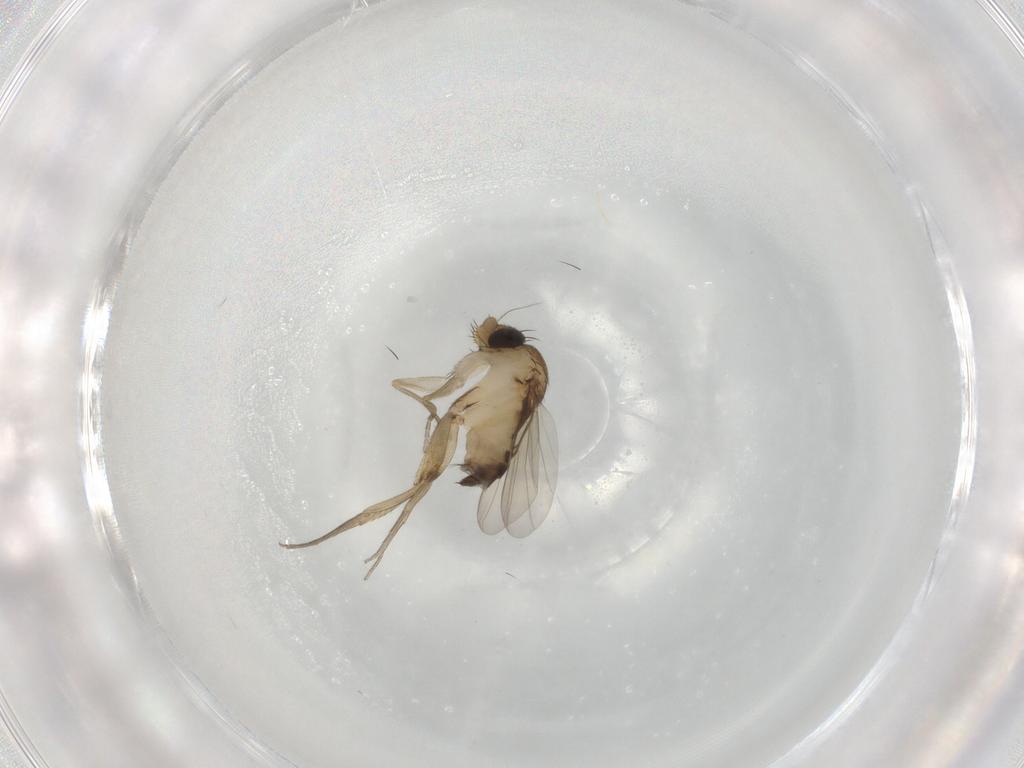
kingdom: Animalia
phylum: Arthropoda
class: Insecta
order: Diptera
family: Phoridae
